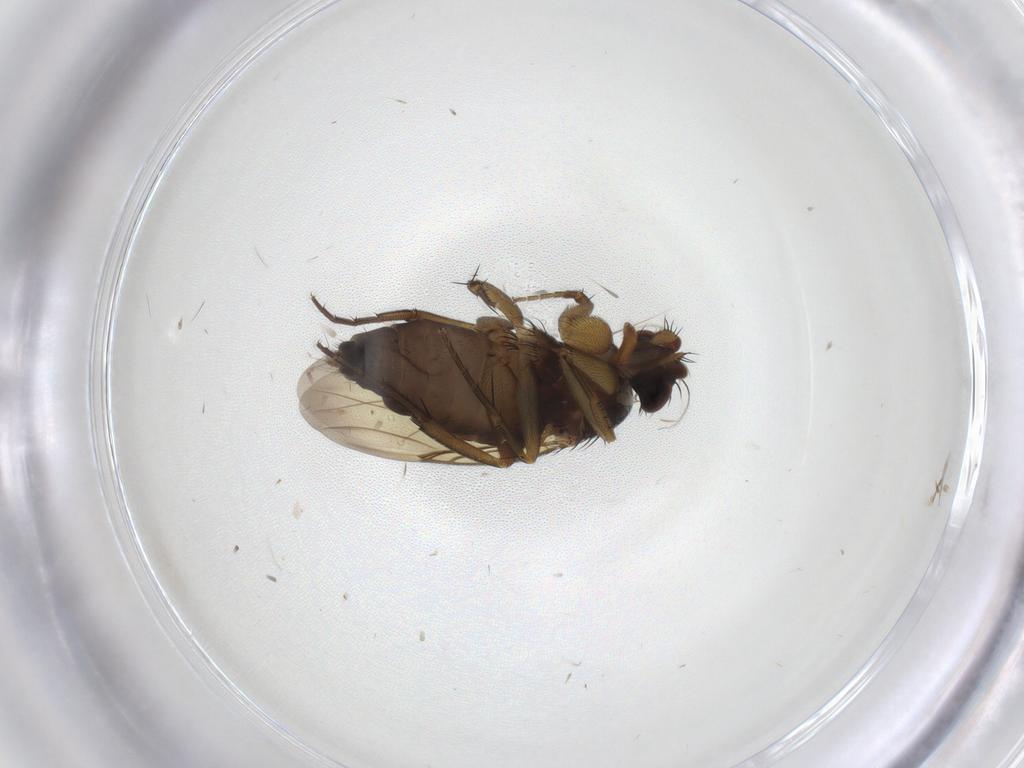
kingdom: Animalia
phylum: Arthropoda
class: Insecta
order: Diptera
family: Phoridae
